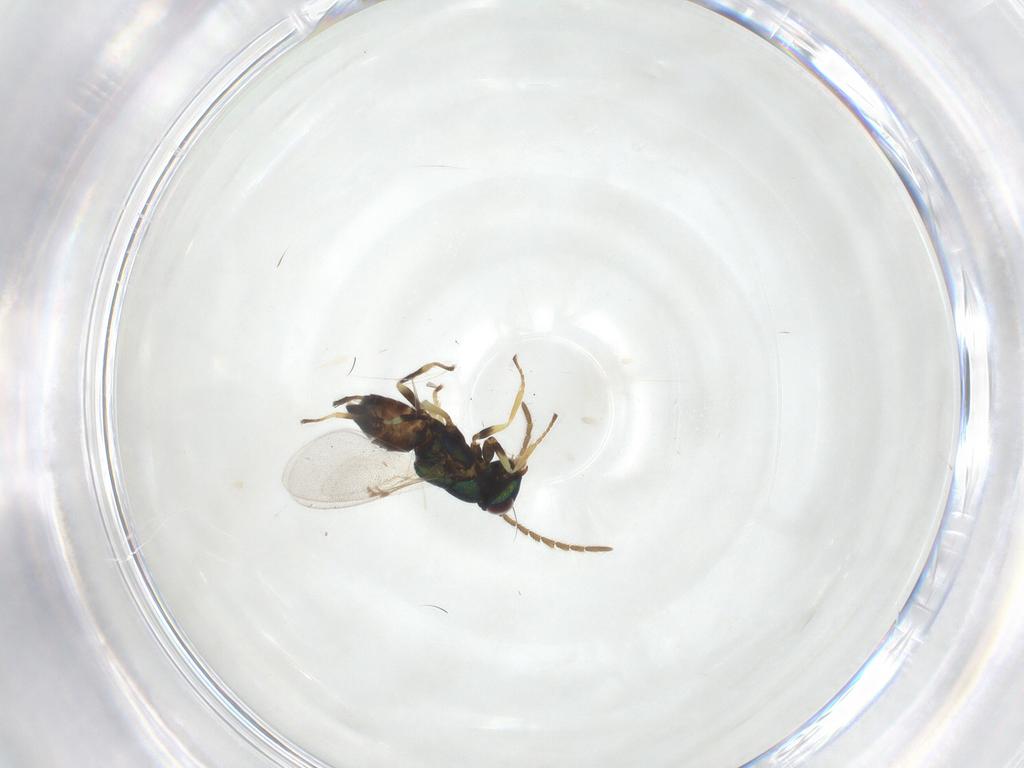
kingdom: Animalia
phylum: Arthropoda
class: Insecta
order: Hymenoptera
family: Encyrtidae
